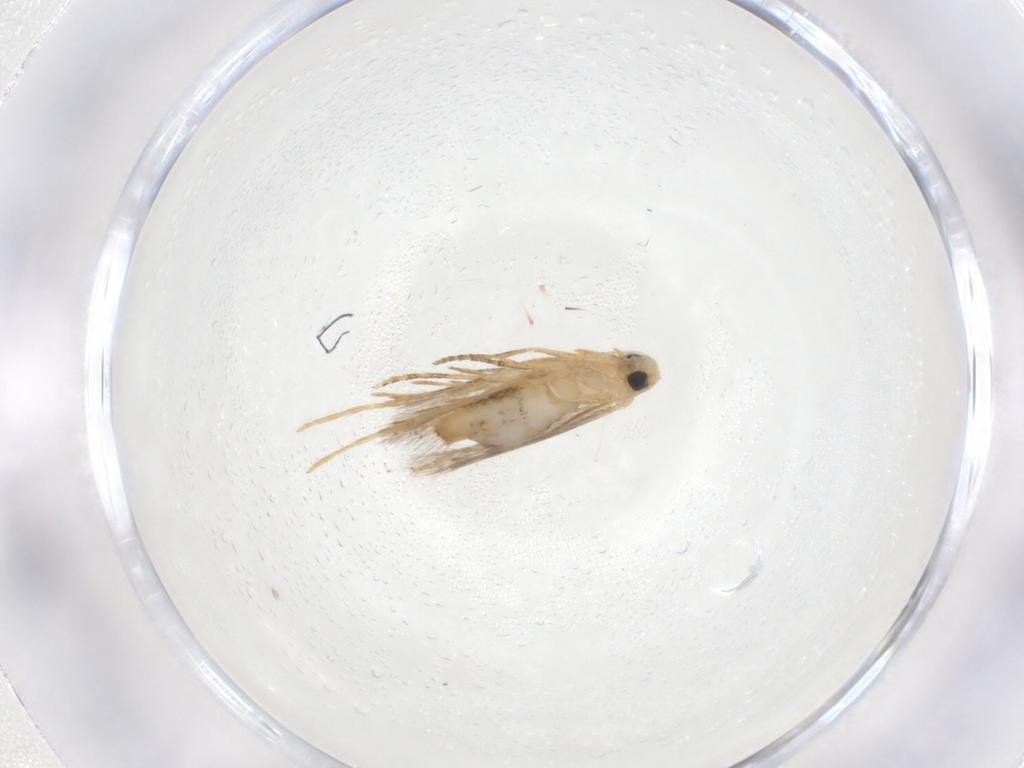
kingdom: Animalia
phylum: Arthropoda
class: Insecta
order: Lepidoptera
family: Tischeriidae
